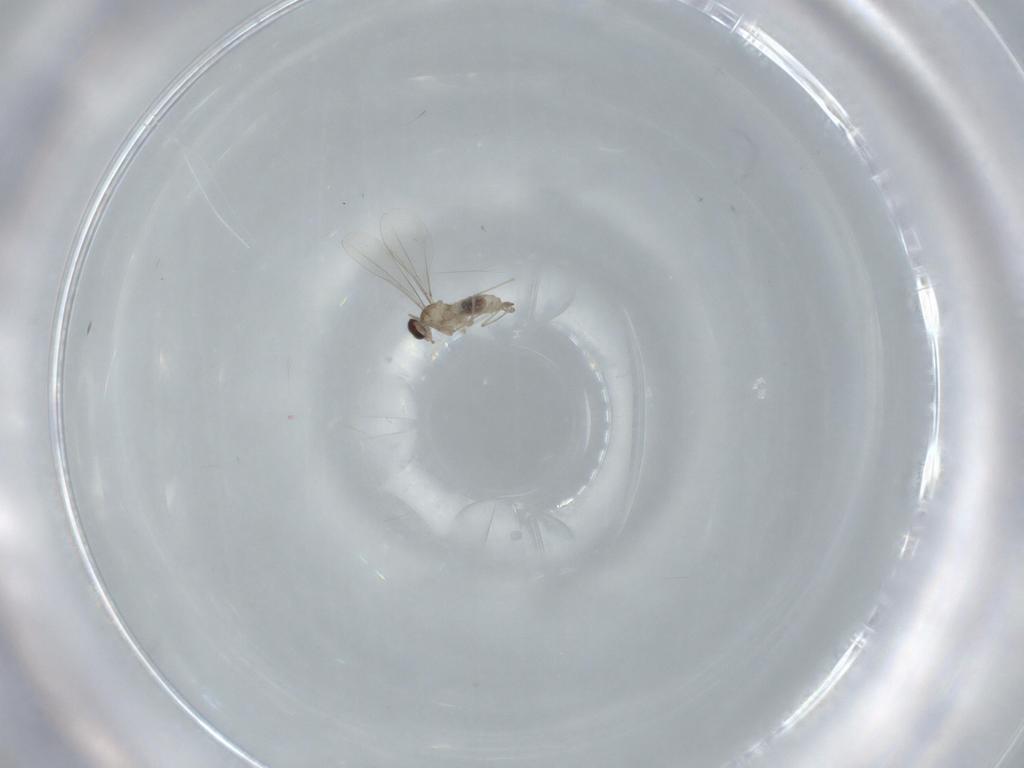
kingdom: Animalia
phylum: Arthropoda
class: Insecta
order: Diptera
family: Cecidomyiidae
